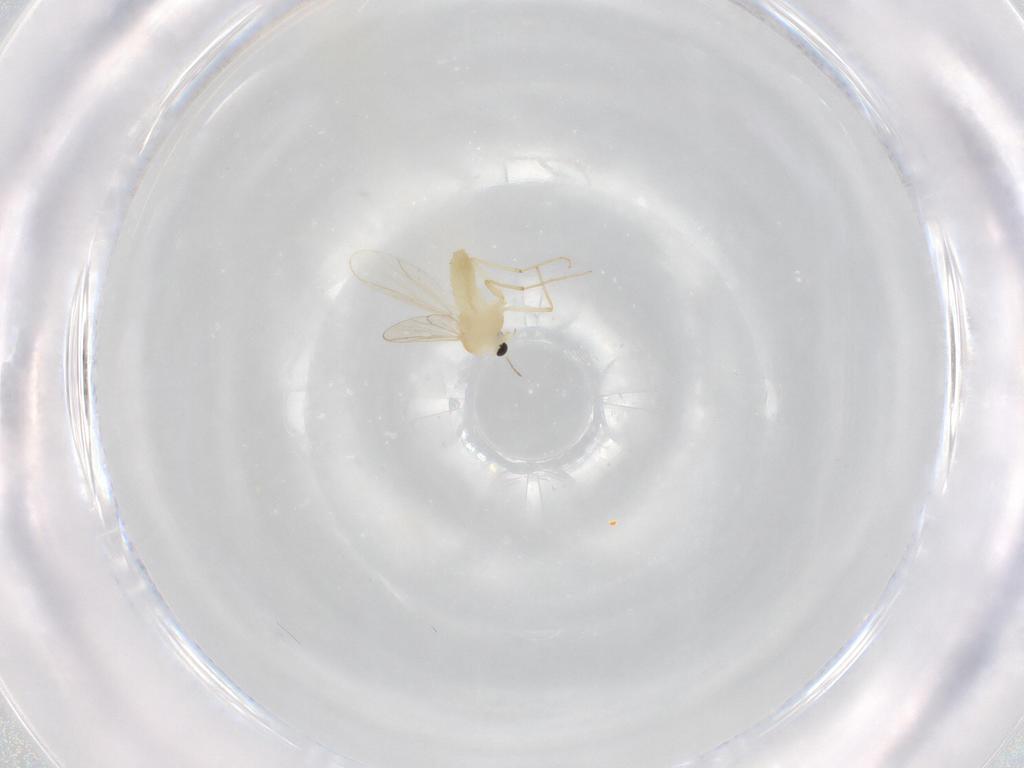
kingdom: Animalia
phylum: Arthropoda
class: Insecta
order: Diptera
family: Chironomidae
